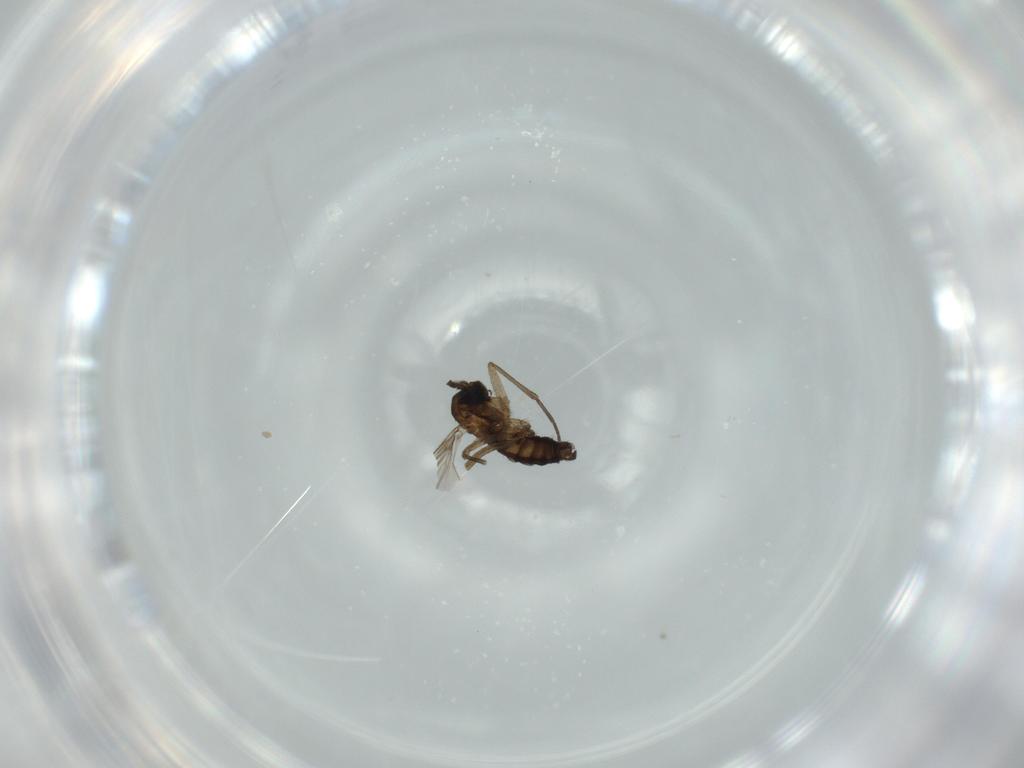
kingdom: Animalia
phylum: Arthropoda
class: Insecta
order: Diptera
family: Sciaridae
